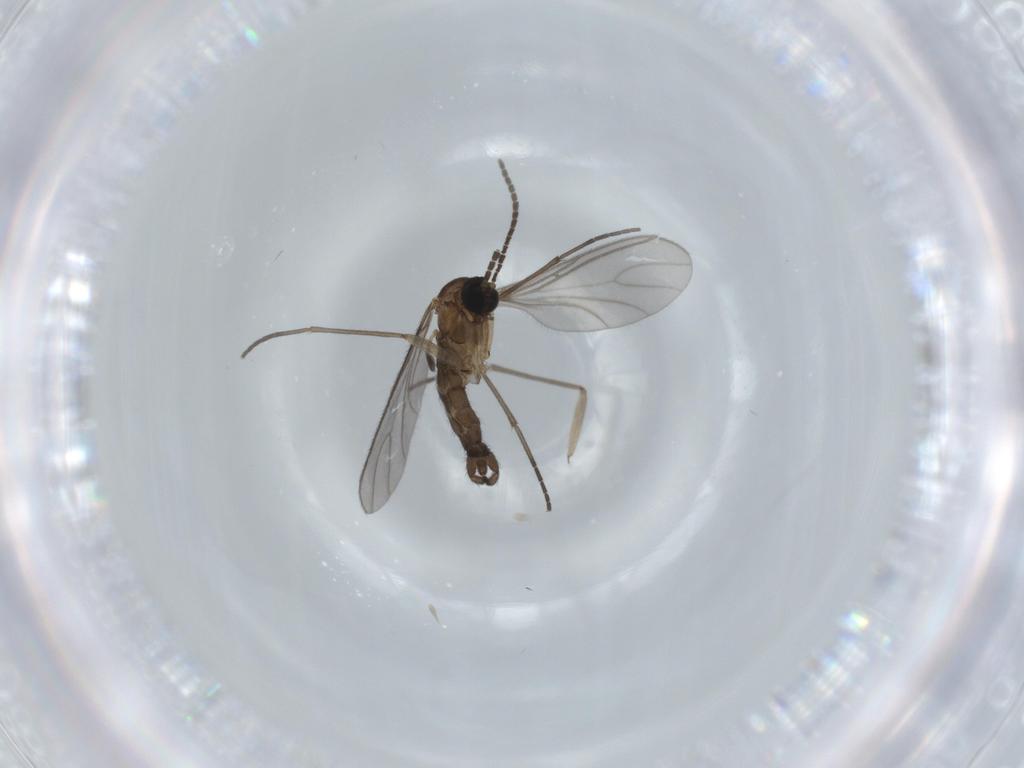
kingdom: Animalia
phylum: Arthropoda
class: Insecta
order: Diptera
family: Sciaridae
